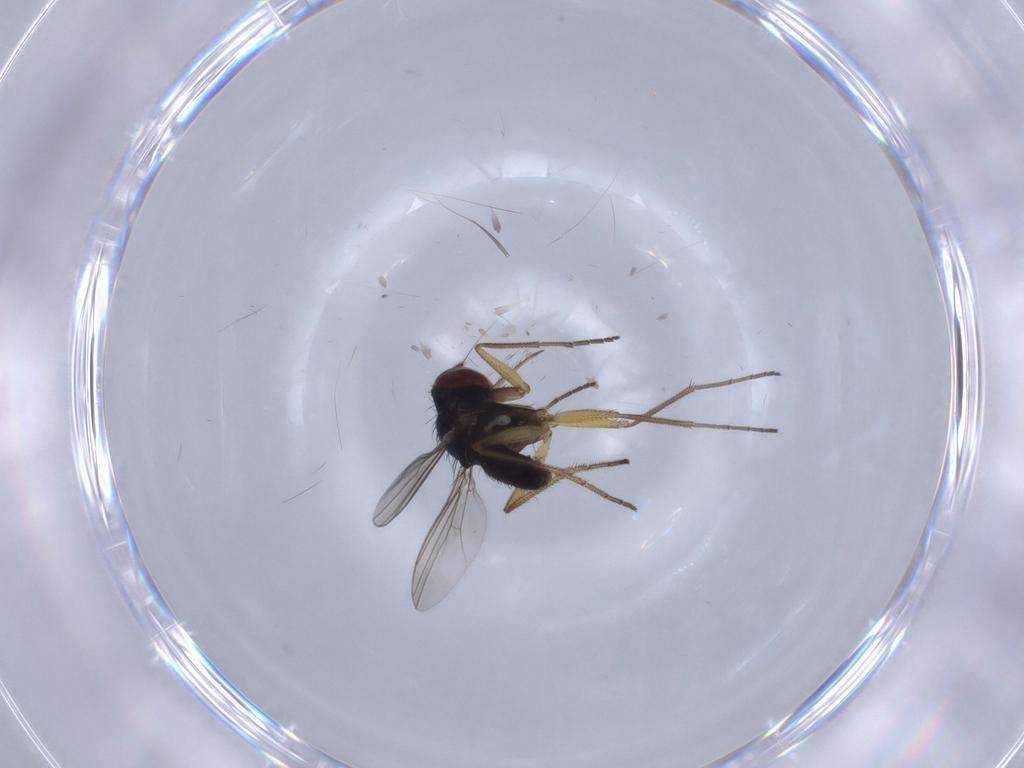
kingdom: Animalia
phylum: Arthropoda
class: Insecta
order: Diptera
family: Dolichopodidae
